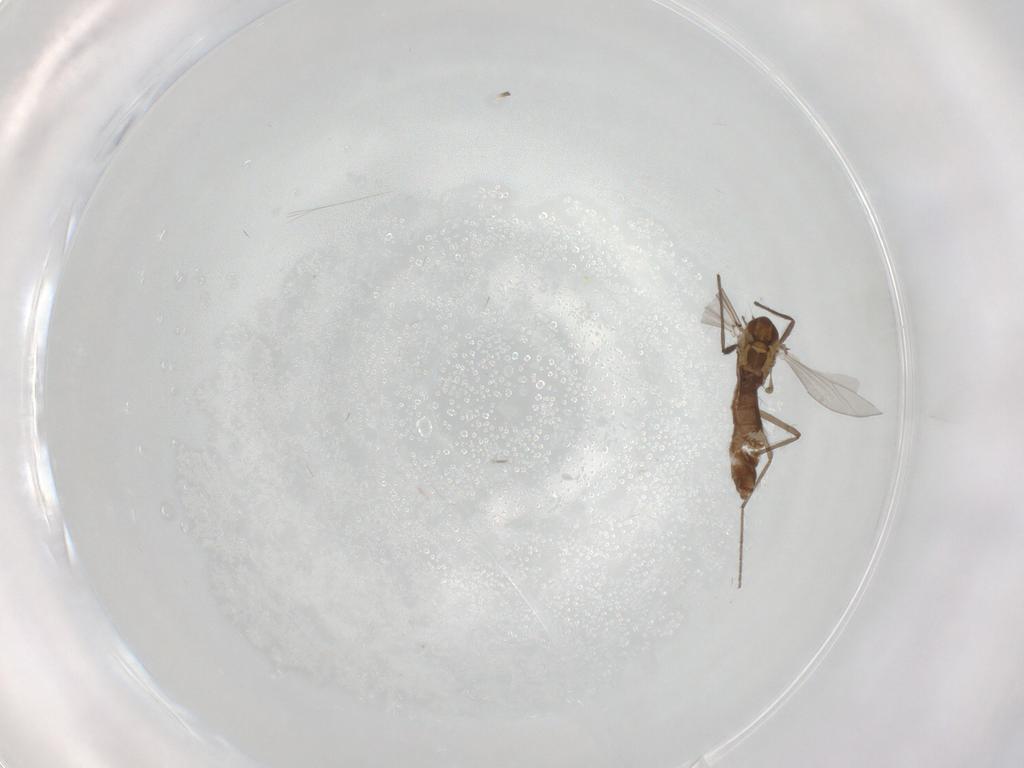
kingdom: Animalia
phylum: Arthropoda
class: Insecta
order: Diptera
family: Chironomidae
